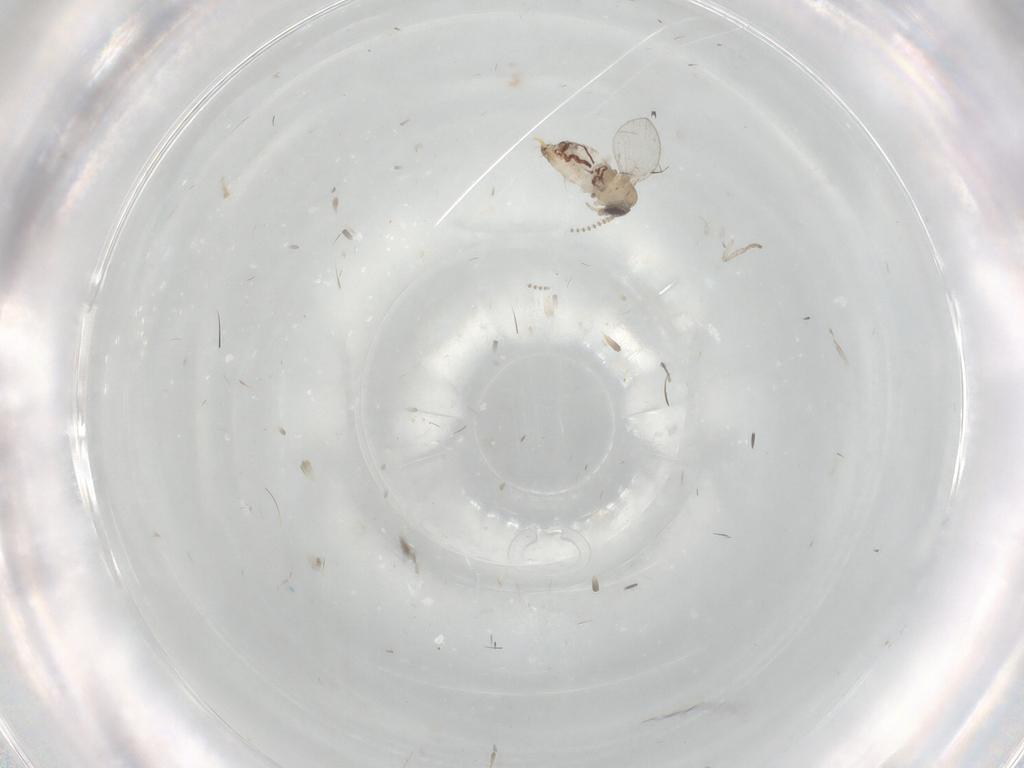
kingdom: Animalia
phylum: Arthropoda
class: Insecta
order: Diptera
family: Psychodidae
